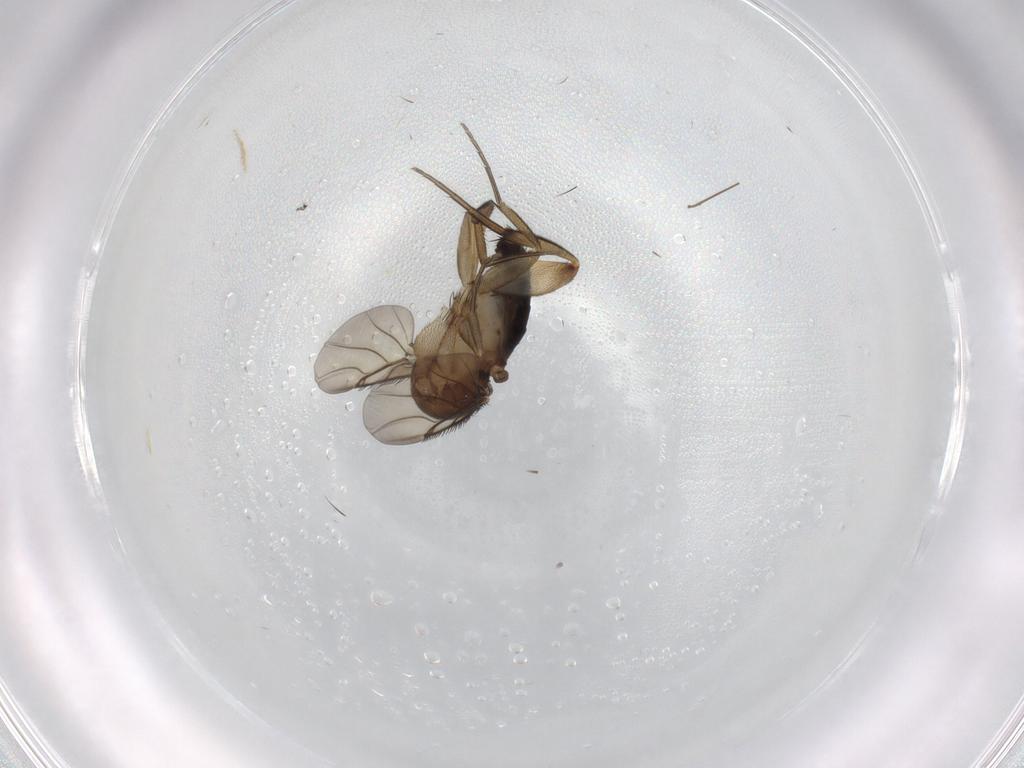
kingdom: Animalia
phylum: Arthropoda
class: Insecta
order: Diptera
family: Phoridae
